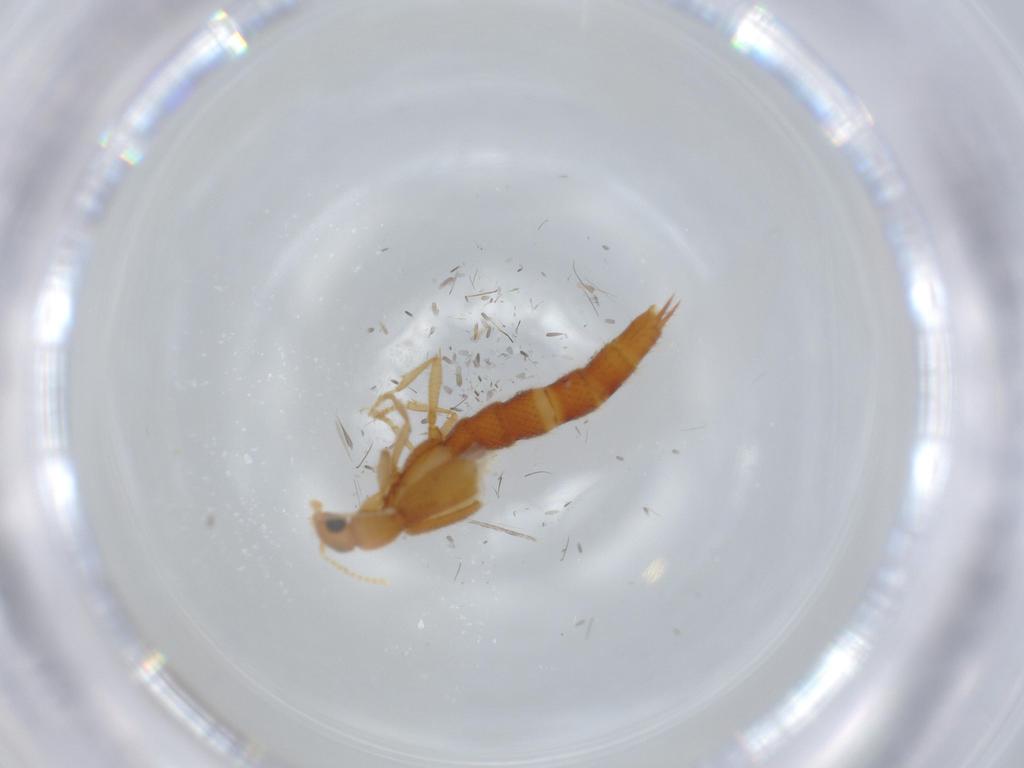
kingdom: Animalia
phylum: Arthropoda
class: Insecta
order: Coleoptera
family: Staphylinidae
